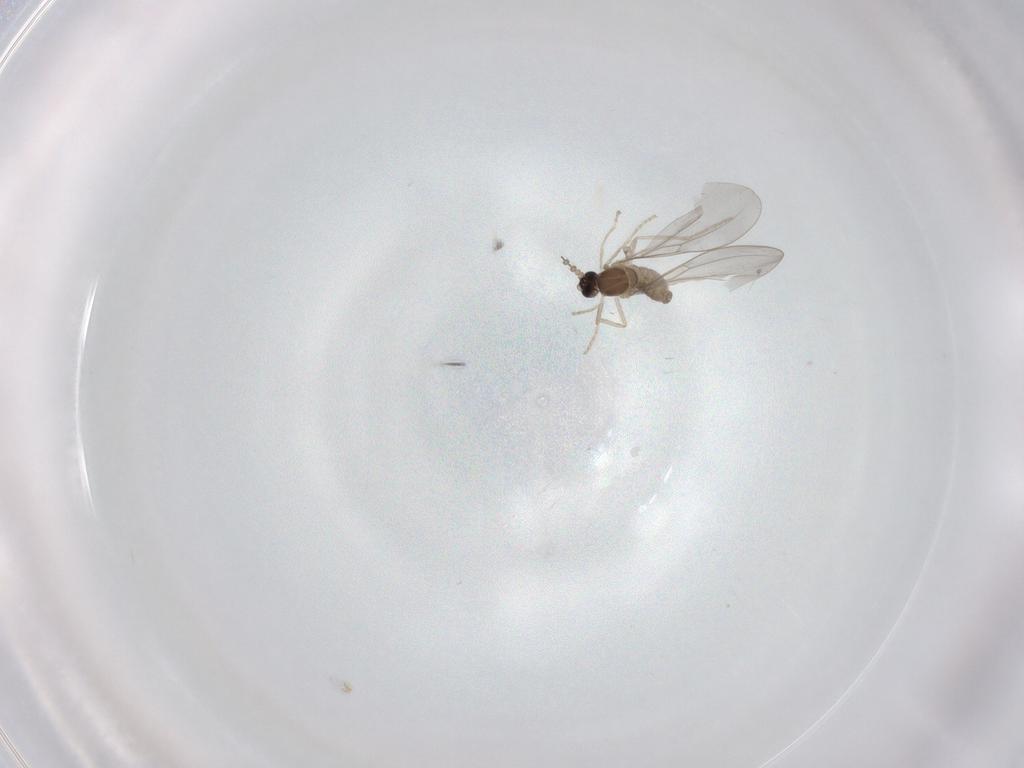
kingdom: Animalia
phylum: Arthropoda
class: Insecta
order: Diptera
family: Cecidomyiidae
